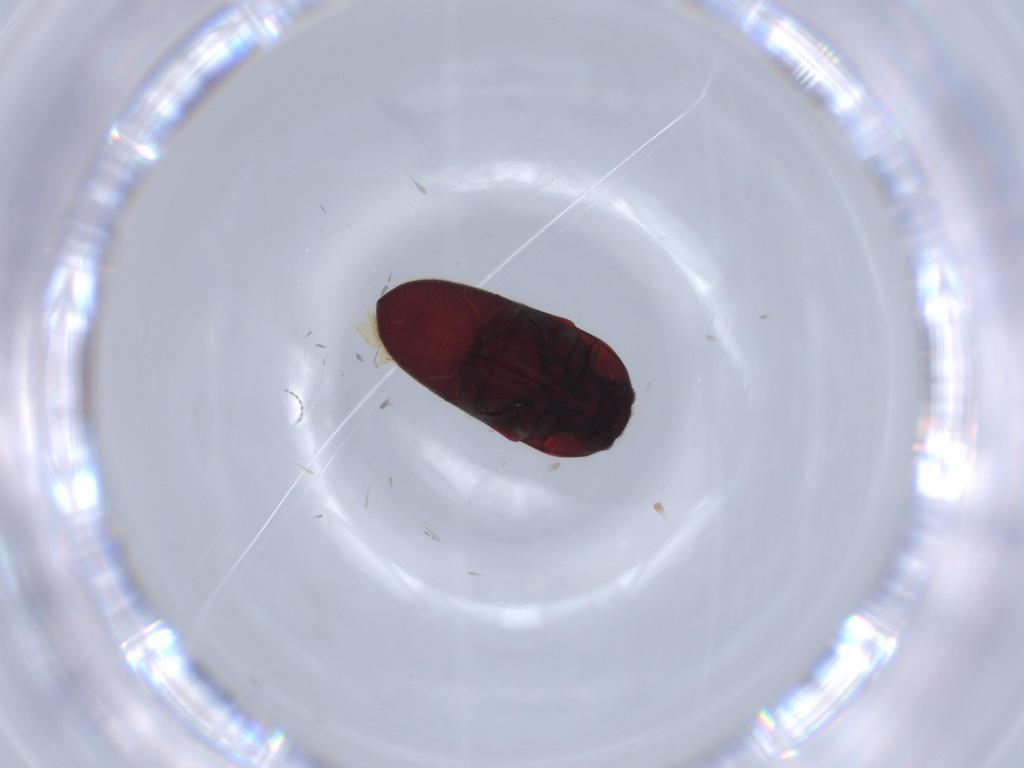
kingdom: Animalia
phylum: Arthropoda
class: Insecta
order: Coleoptera
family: Throscidae
